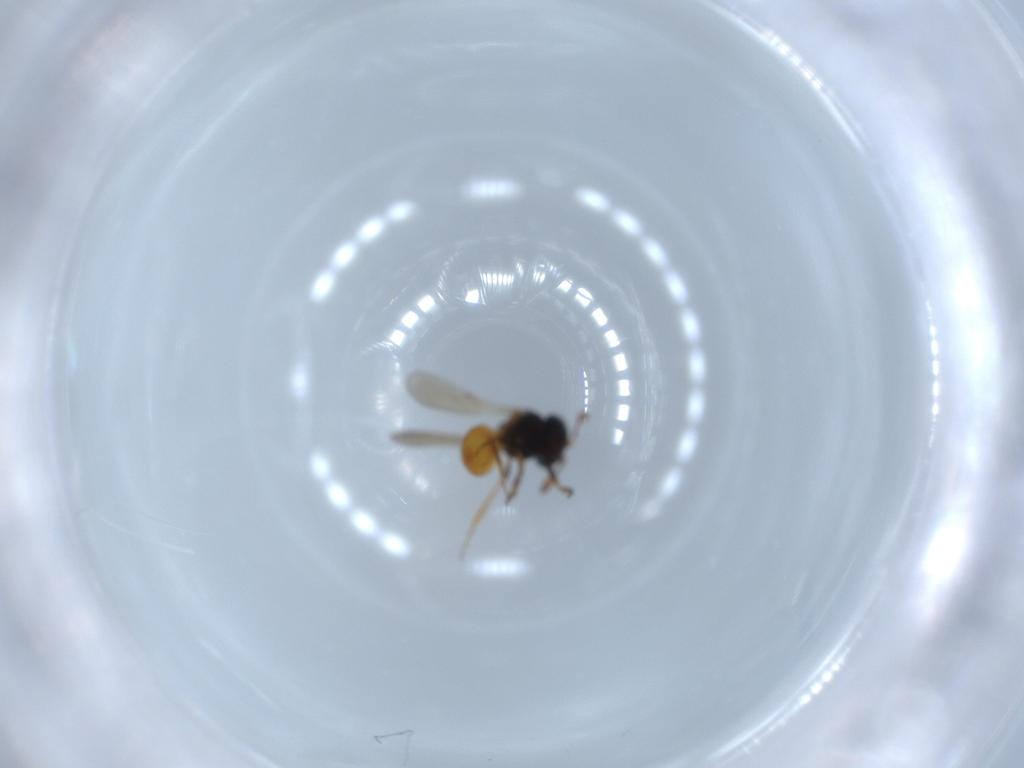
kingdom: Animalia
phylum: Arthropoda
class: Insecta
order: Hymenoptera
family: Scelionidae
